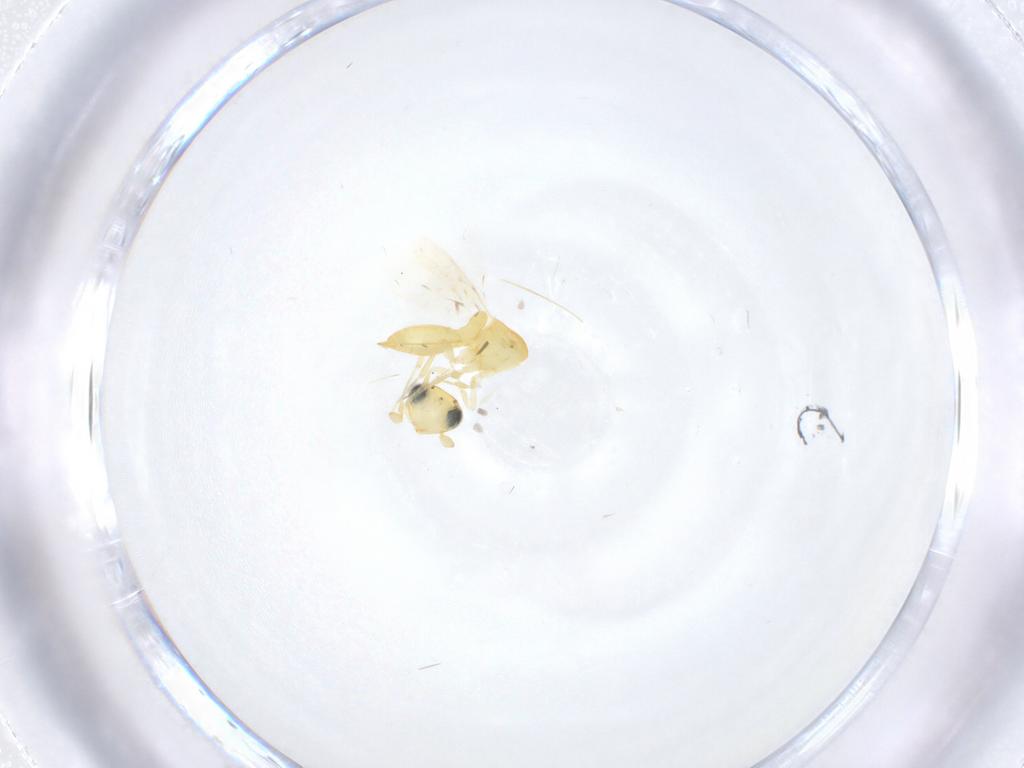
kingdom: Animalia
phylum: Arthropoda
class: Insecta
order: Hymenoptera
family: Scelionidae
